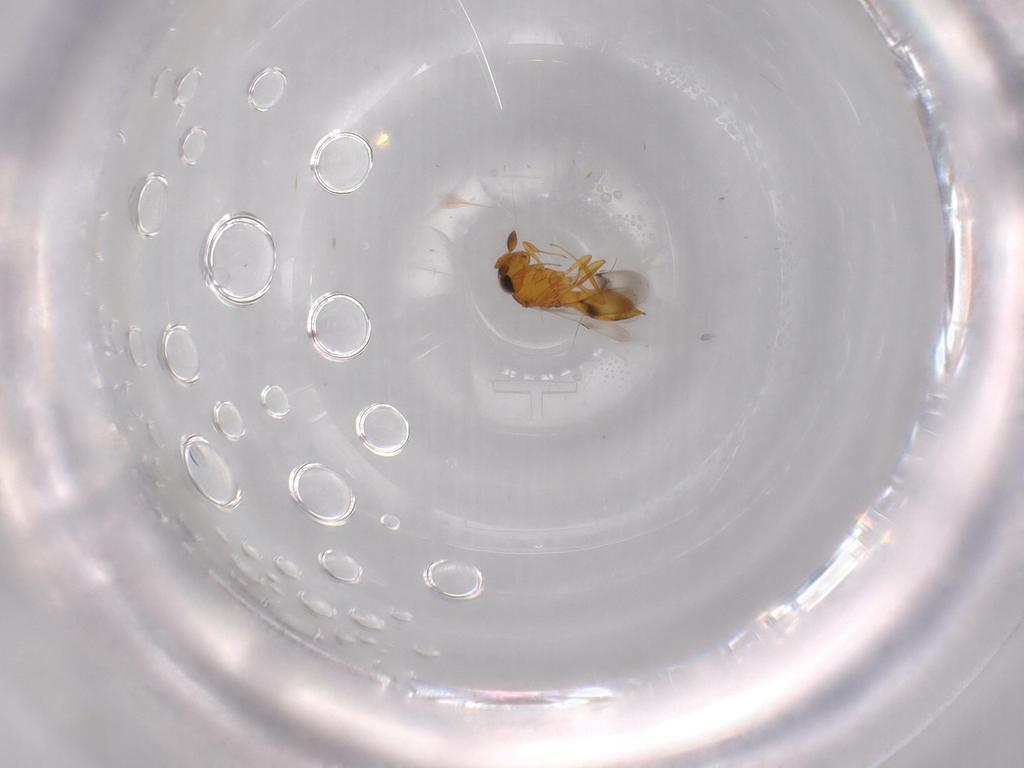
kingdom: Animalia
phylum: Arthropoda
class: Insecta
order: Hymenoptera
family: Scelionidae
